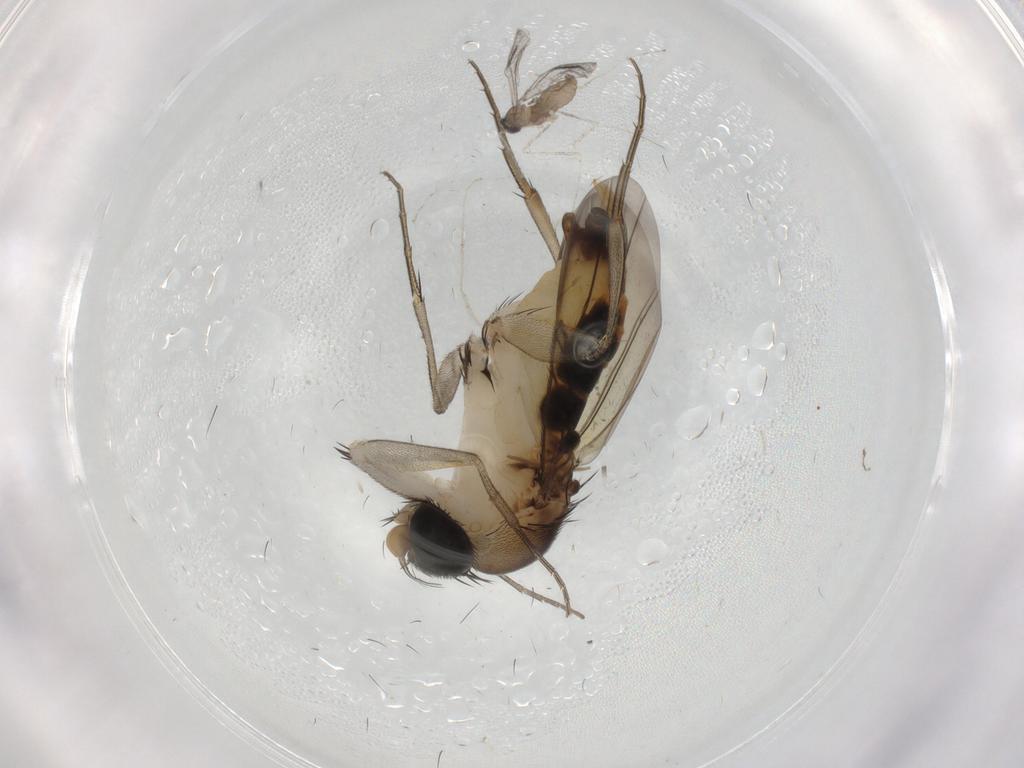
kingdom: Animalia
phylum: Arthropoda
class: Insecta
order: Diptera
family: Phoridae
